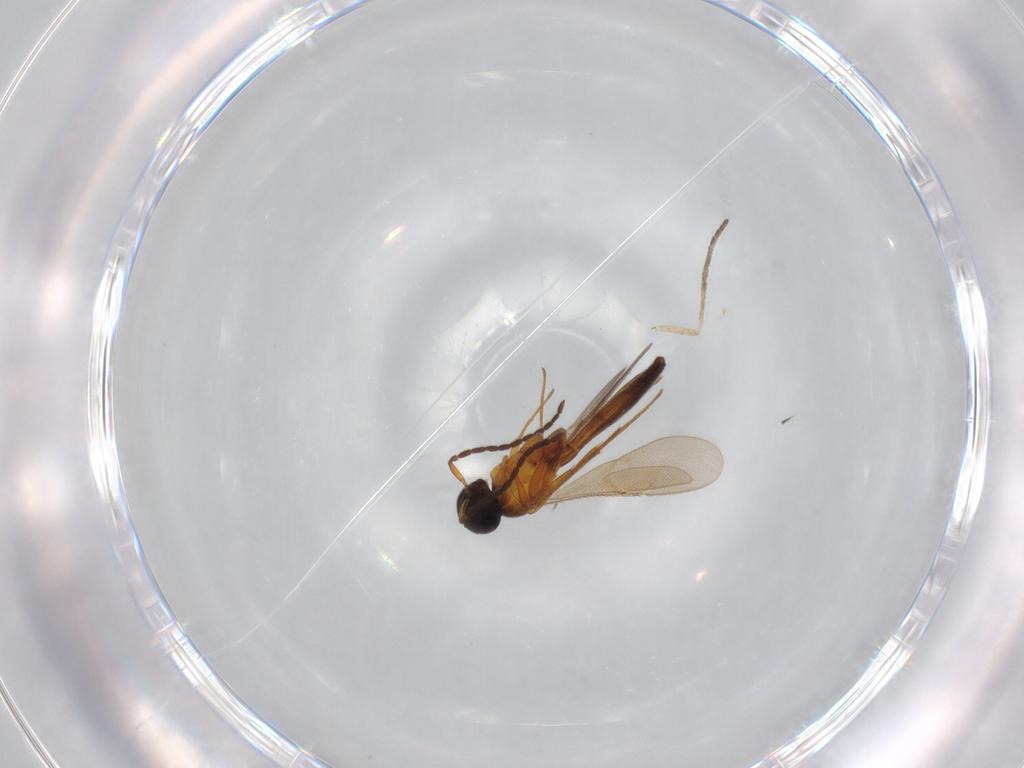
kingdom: Animalia
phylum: Arthropoda
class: Insecta
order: Hymenoptera
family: Scelionidae
